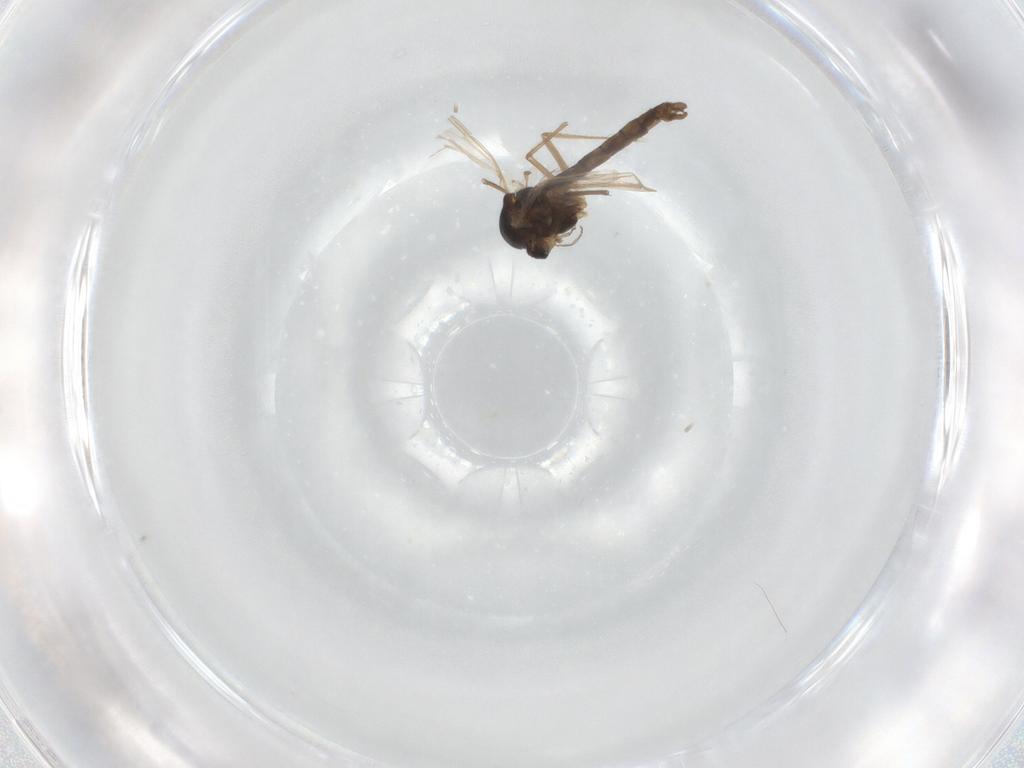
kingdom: Animalia
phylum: Arthropoda
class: Insecta
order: Diptera
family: Chironomidae
